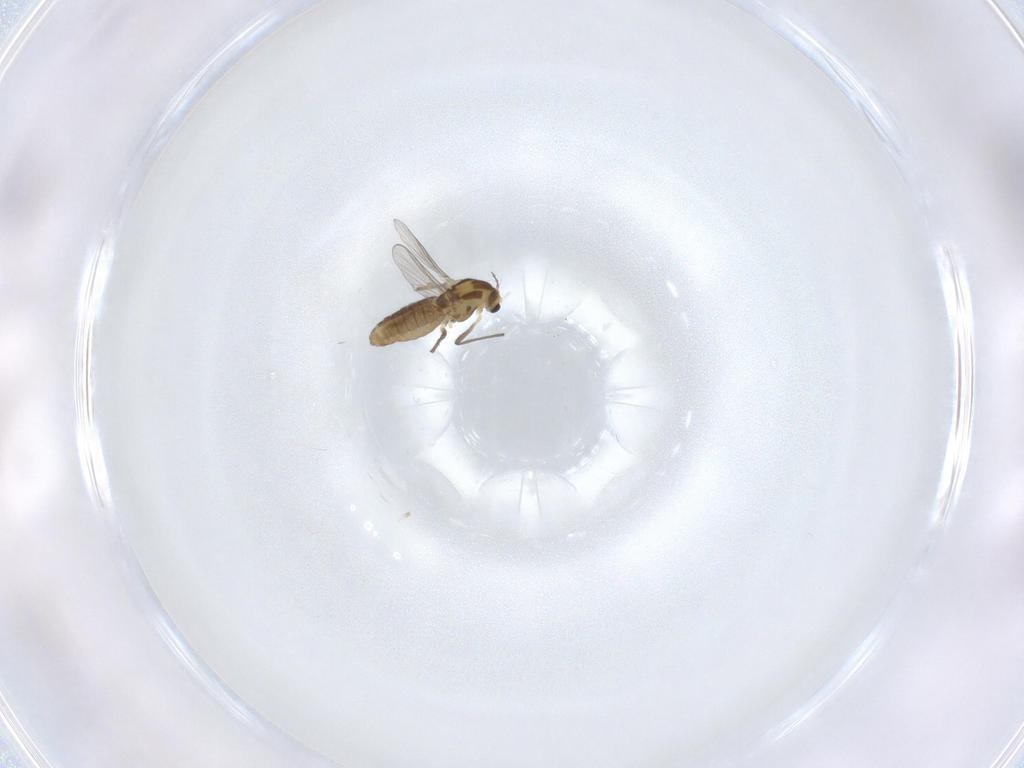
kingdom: Animalia
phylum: Arthropoda
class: Insecta
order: Diptera
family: Chironomidae
